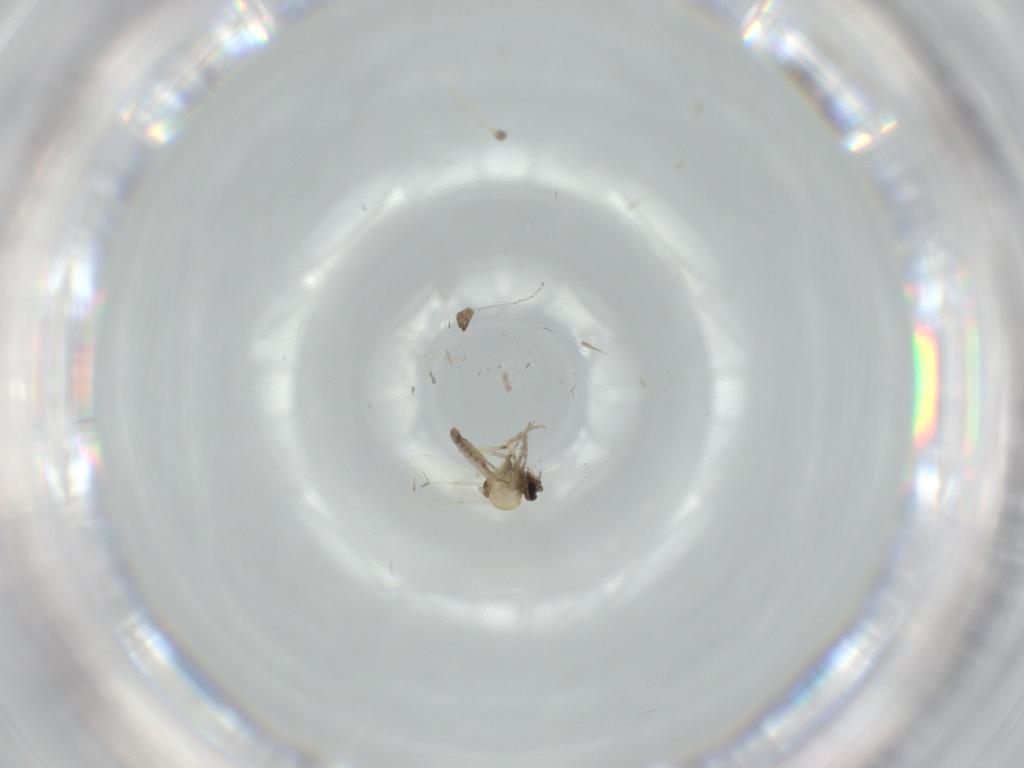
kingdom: Animalia
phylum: Arthropoda
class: Insecta
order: Diptera
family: Ceratopogonidae
